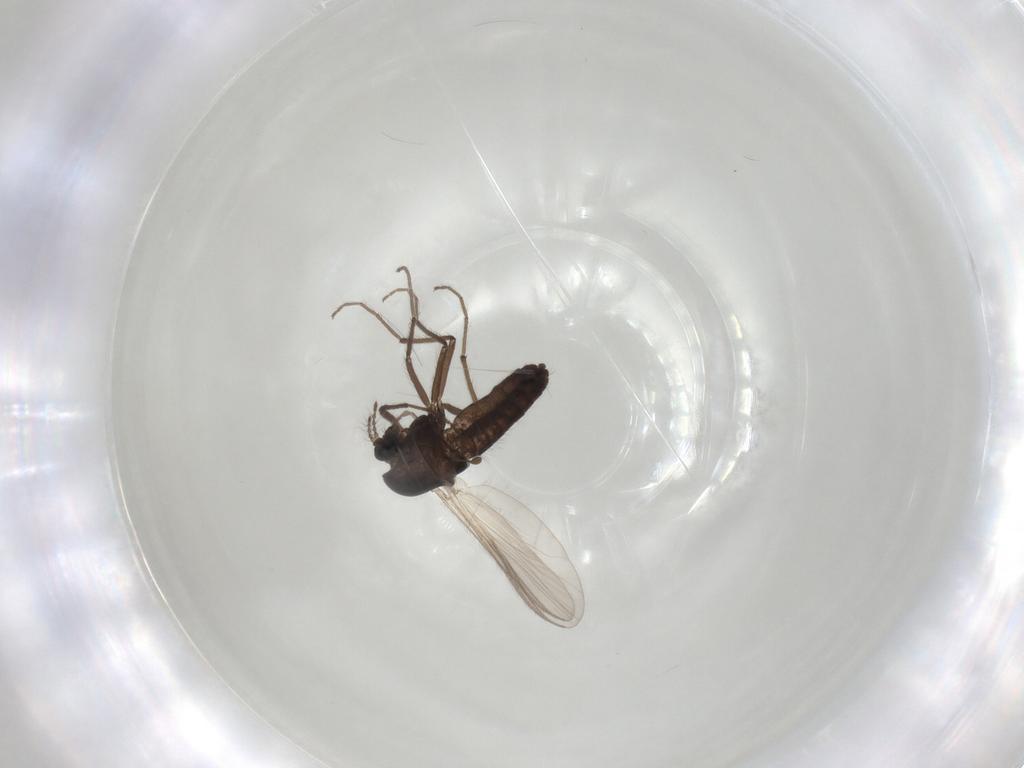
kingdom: Animalia
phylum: Arthropoda
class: Insecta
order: Diptera
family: Chironomidae
